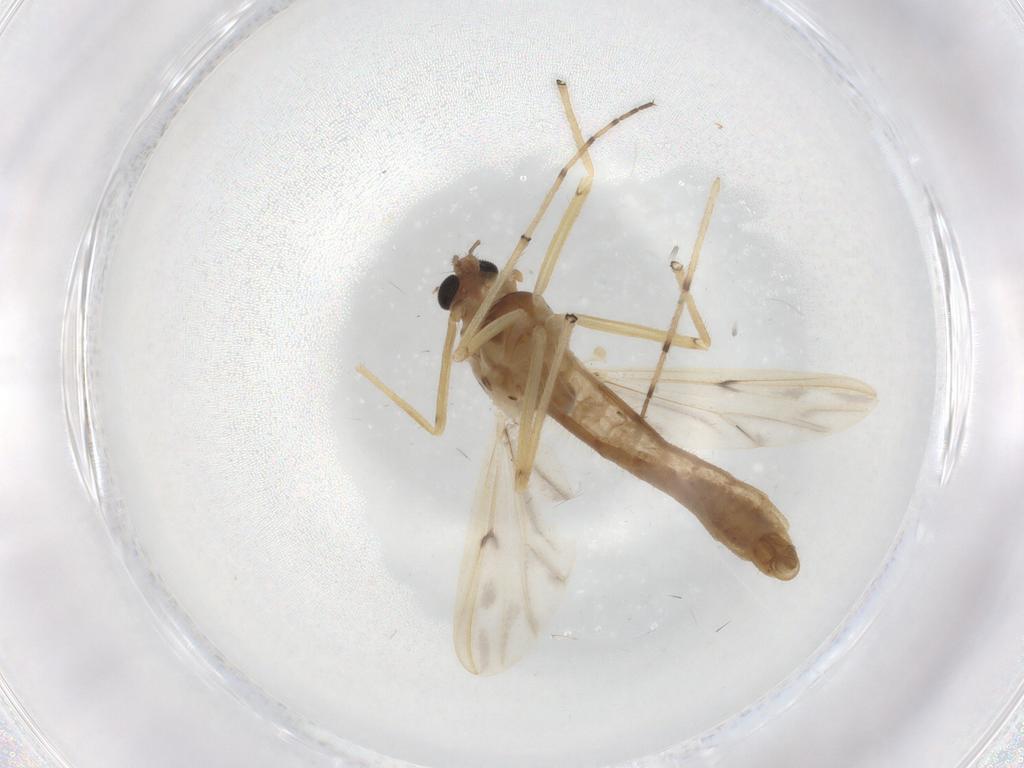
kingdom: Animalia
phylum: Arthropoda
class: Insecta
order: Diptera
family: Chironomidae
